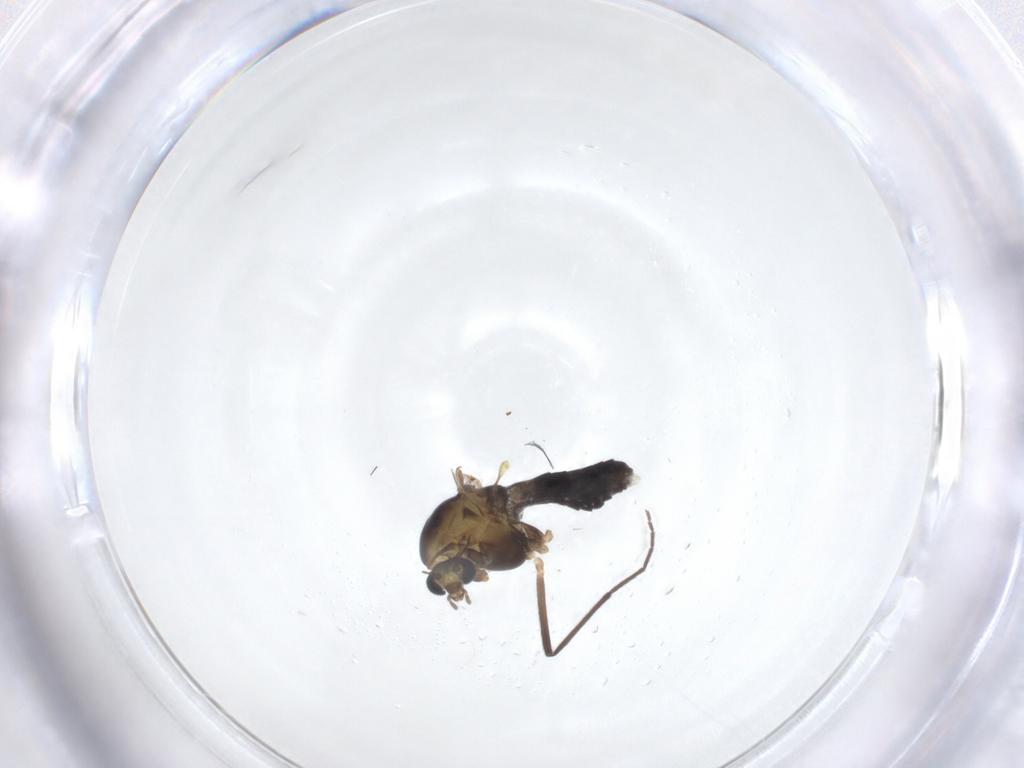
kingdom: Animalia
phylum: Arthropoda
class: Insecta
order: Diptera
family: Chironomidae
